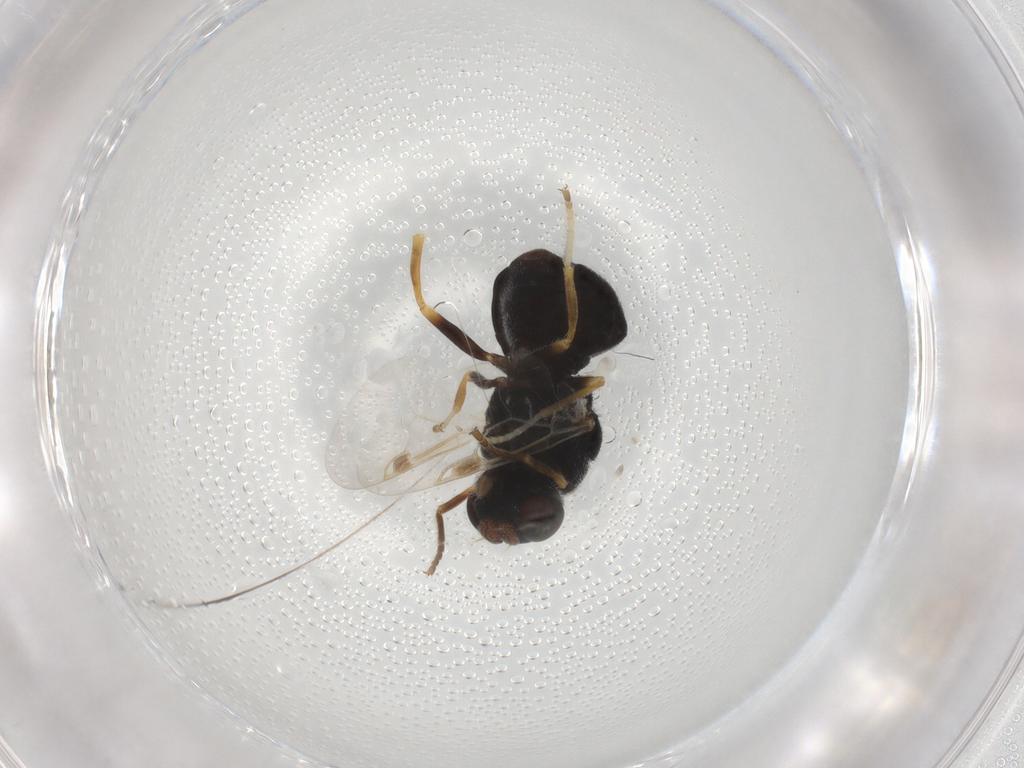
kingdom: Animalia
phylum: Arthropoda
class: Insecta
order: Diptera
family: Stratiomyidae
